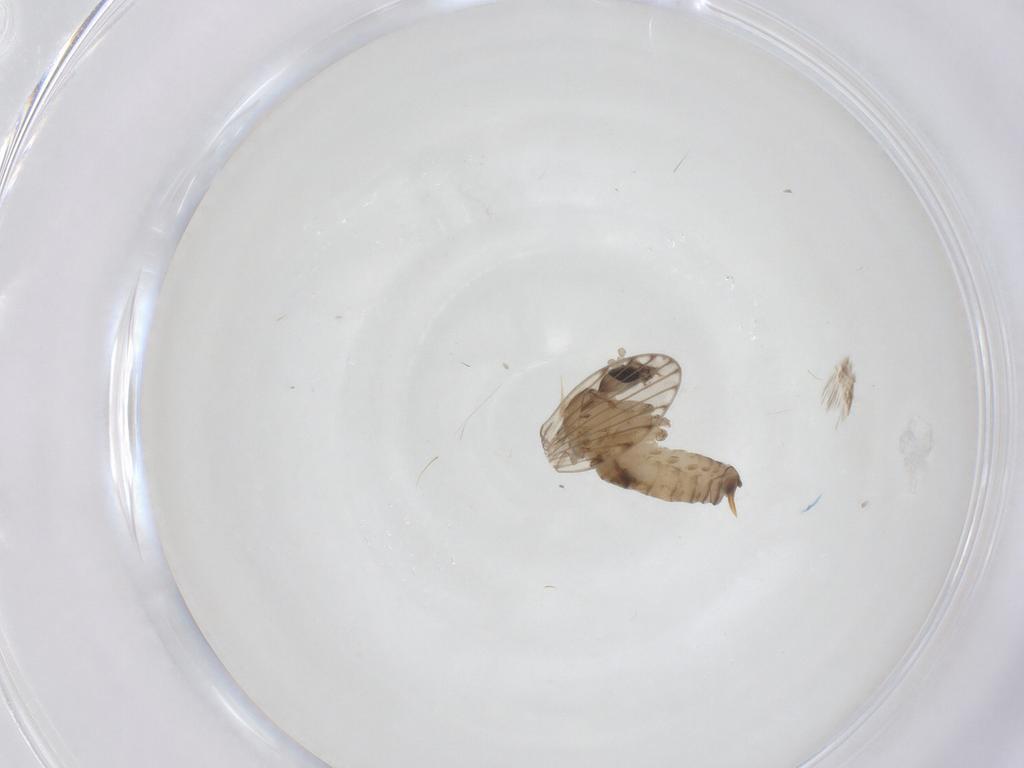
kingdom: Animalia
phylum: Arthropoda
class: Insecta
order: Diptera
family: Psychodidae
